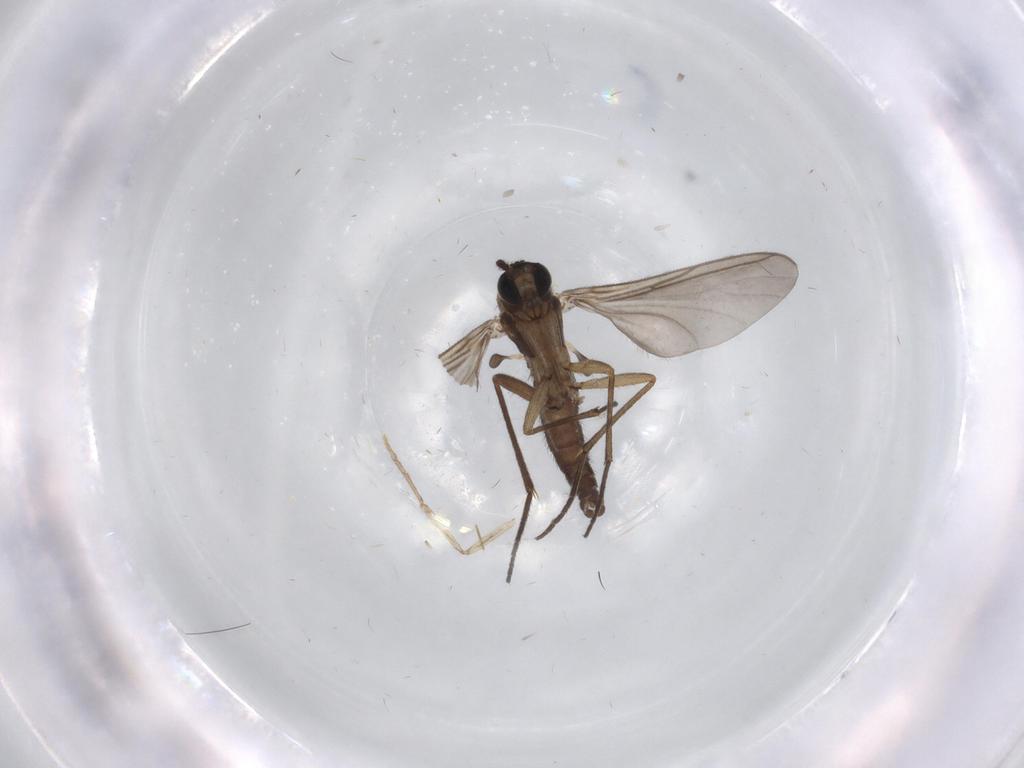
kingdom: Animalia
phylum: Arthropoda
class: Insecta
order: Diptera
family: Sciaridae
